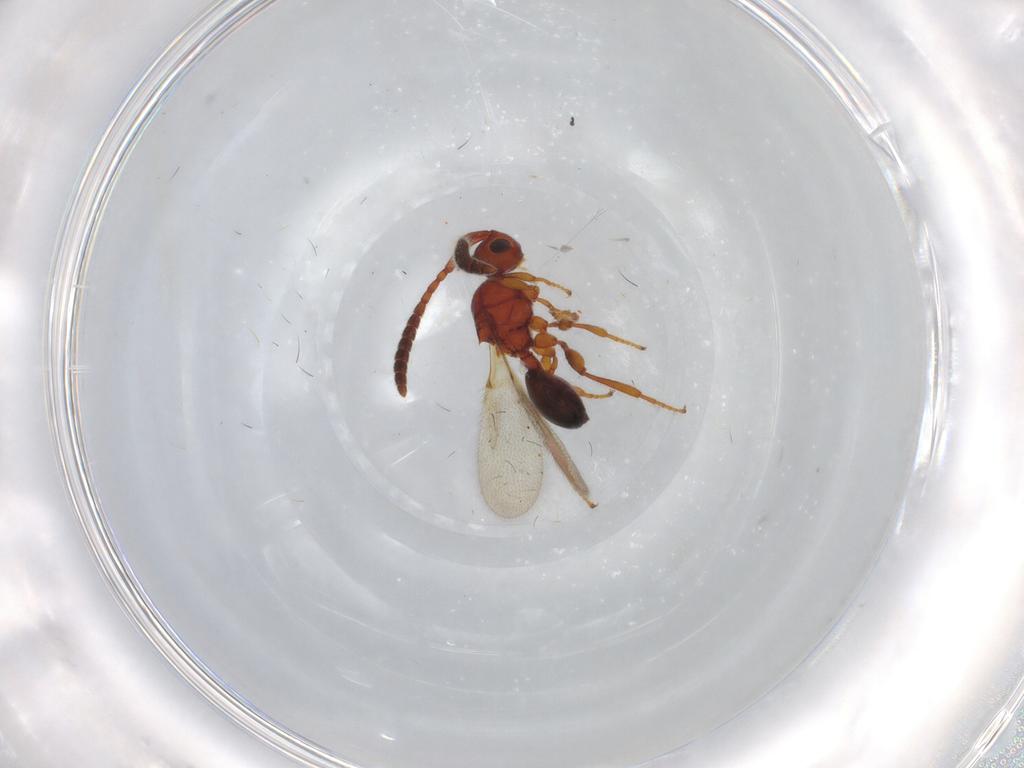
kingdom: Animalia
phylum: Arthropoda
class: Insecta
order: Hymenoptera
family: Diapriidae
